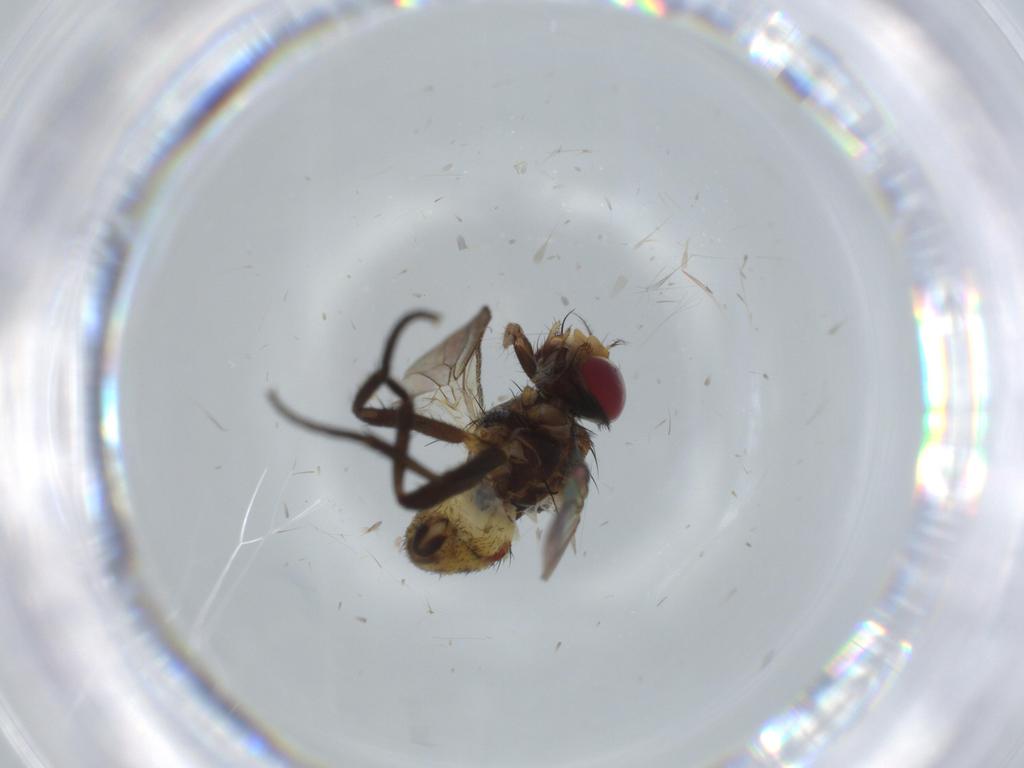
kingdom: Animalia
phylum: Arthropoda
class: Insecta
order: Diptera
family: Anthomyiidae
